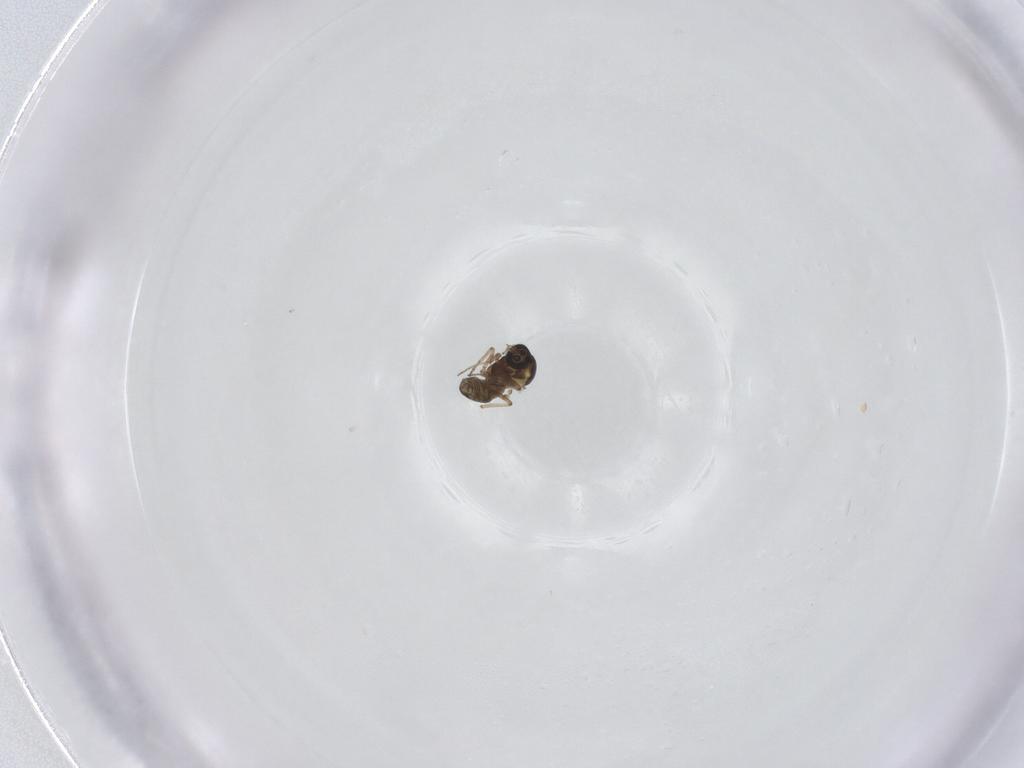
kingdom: Animalia
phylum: Arthropoda
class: Insecta
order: Diptera
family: Ceratopogonidae
